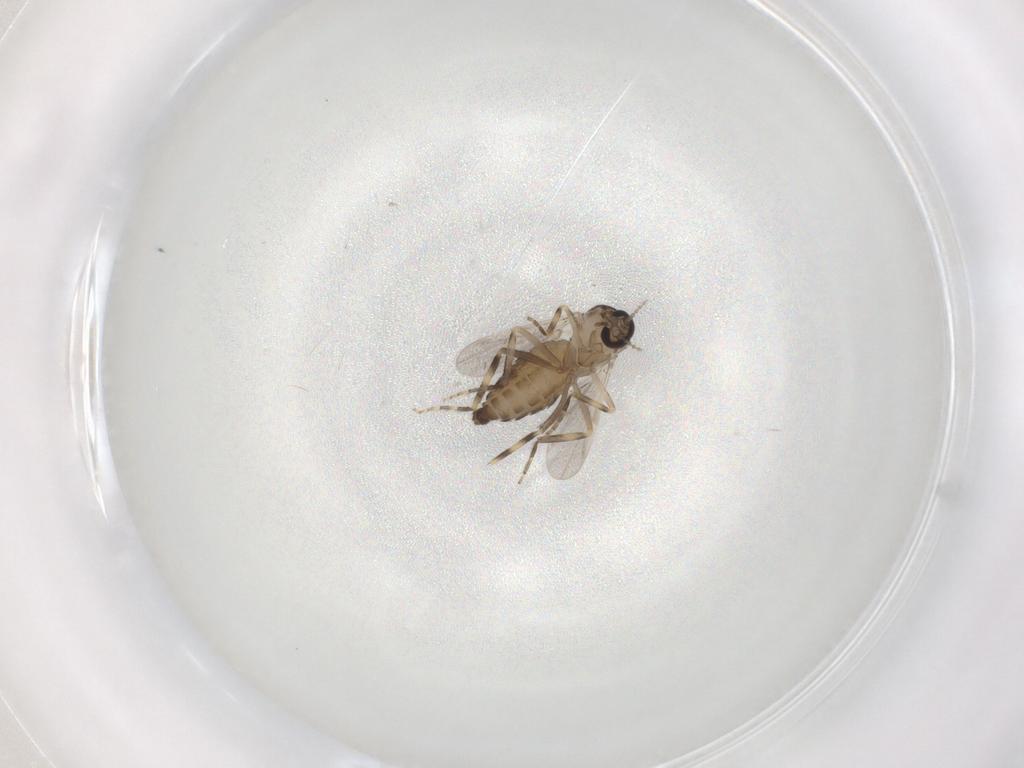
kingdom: Animalia
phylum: Arthropoda
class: Insecta
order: Diptera
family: Ceratopogonidae
